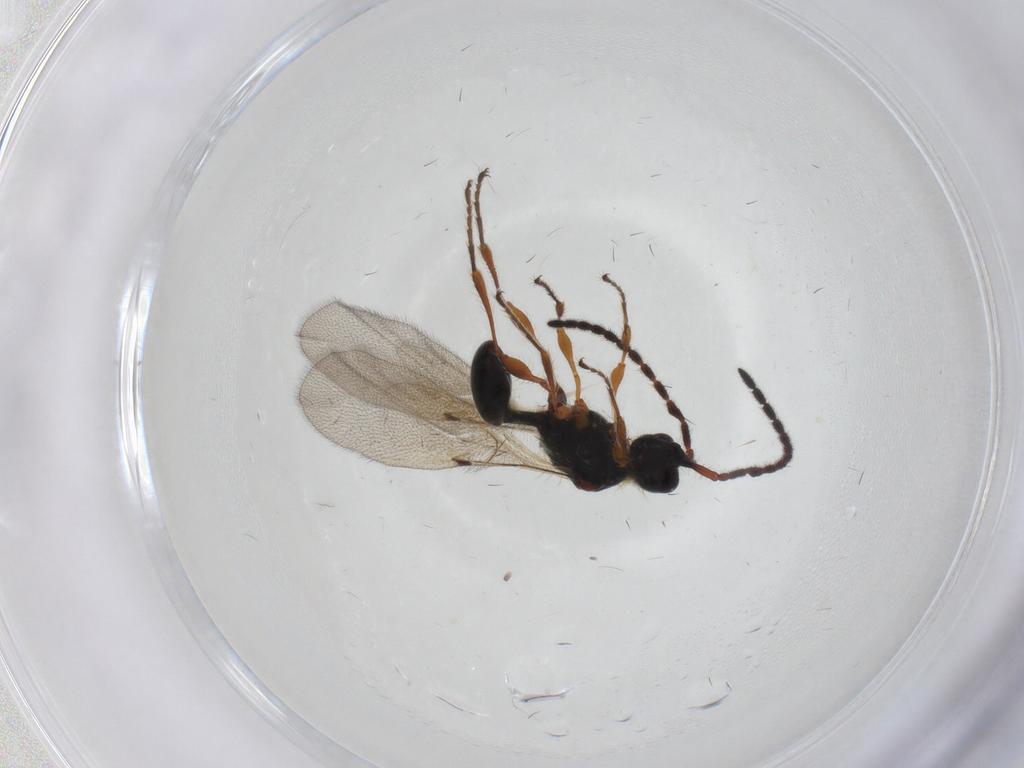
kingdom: Animalia
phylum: Arthropoda
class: Insecta
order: Hymenoptera
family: Diapriidae
